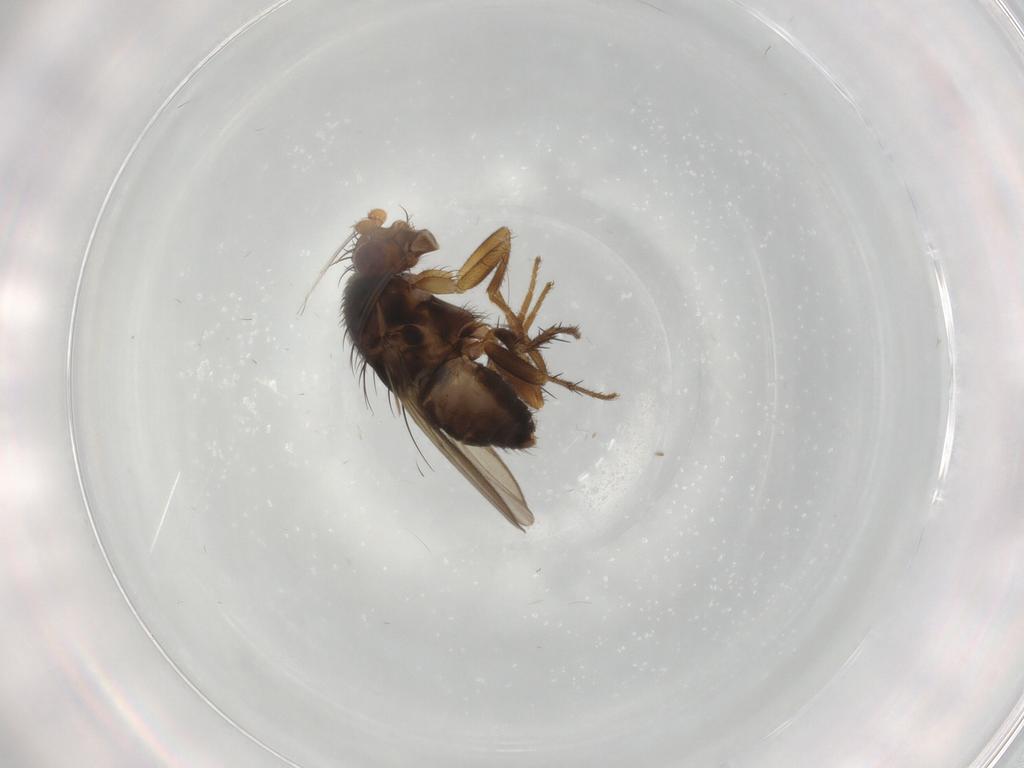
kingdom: Animalia
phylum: Arthropoda
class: Insecta
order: Diptera
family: Sphaeroceridae
